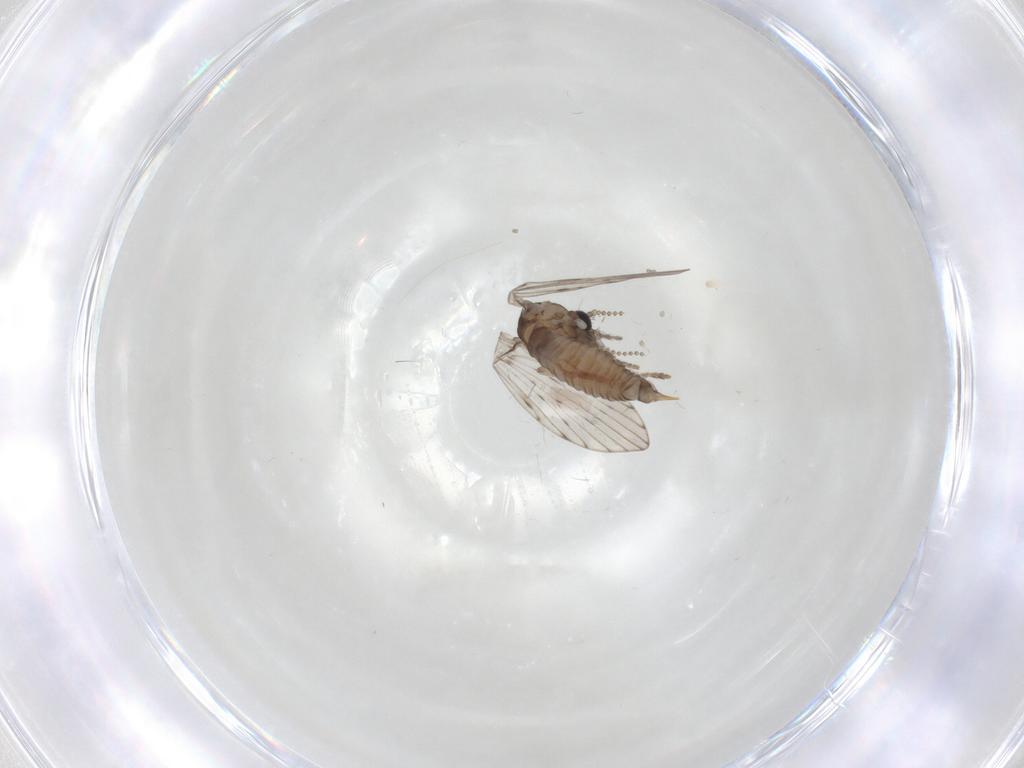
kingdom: Animalia
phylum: Arthropoda
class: Insecta
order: Diptera
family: Psychodidae
